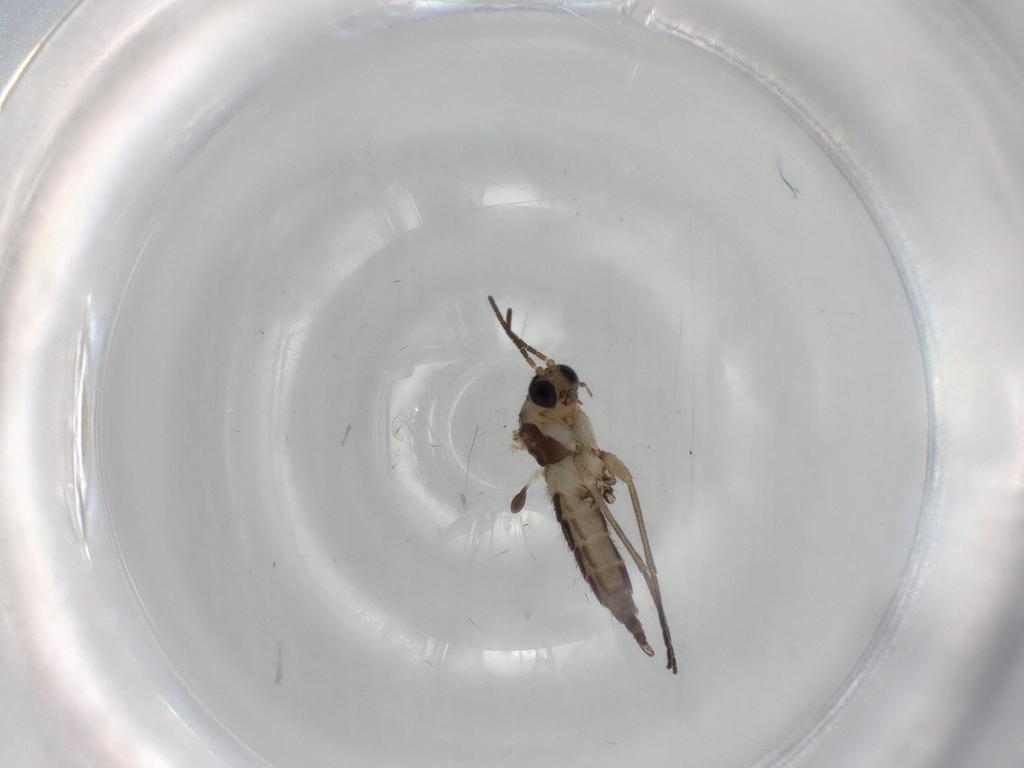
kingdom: Animalia
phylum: Arthropoda
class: Insecta
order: Diptera
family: Sciaridae
